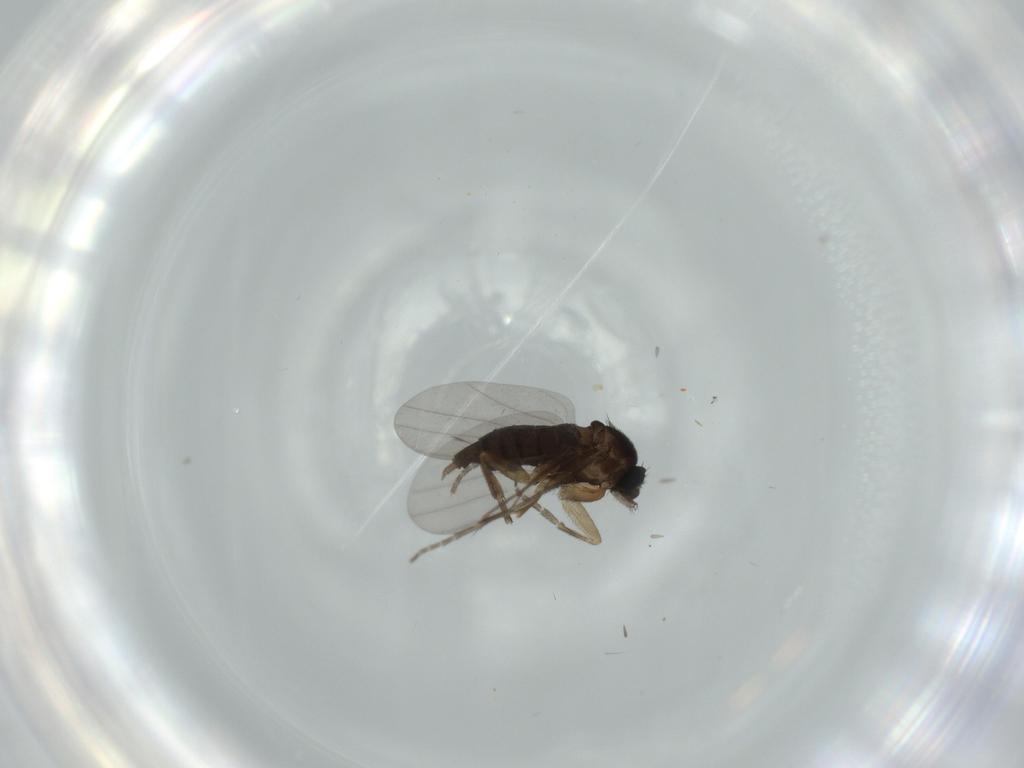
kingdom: Animalia
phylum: Arthropoda
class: Insecta
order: Diptera
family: Phoridae
